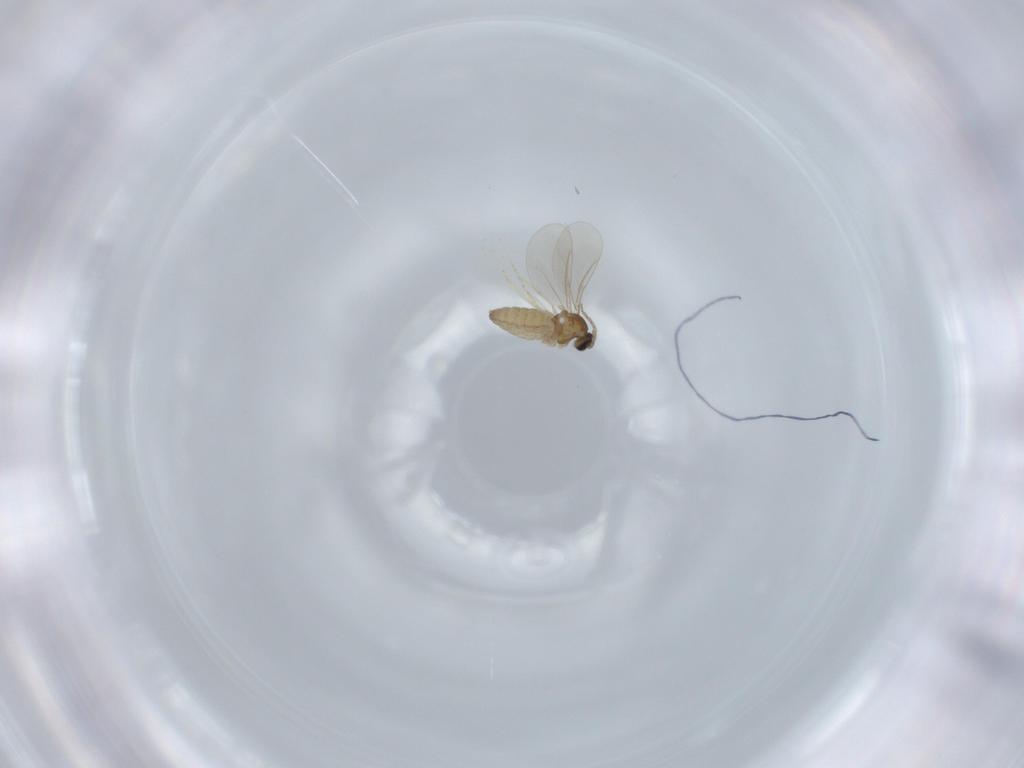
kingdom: Animalia
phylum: Arthropoda
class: Insecta
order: Diptera
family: Cecidomyiidae
